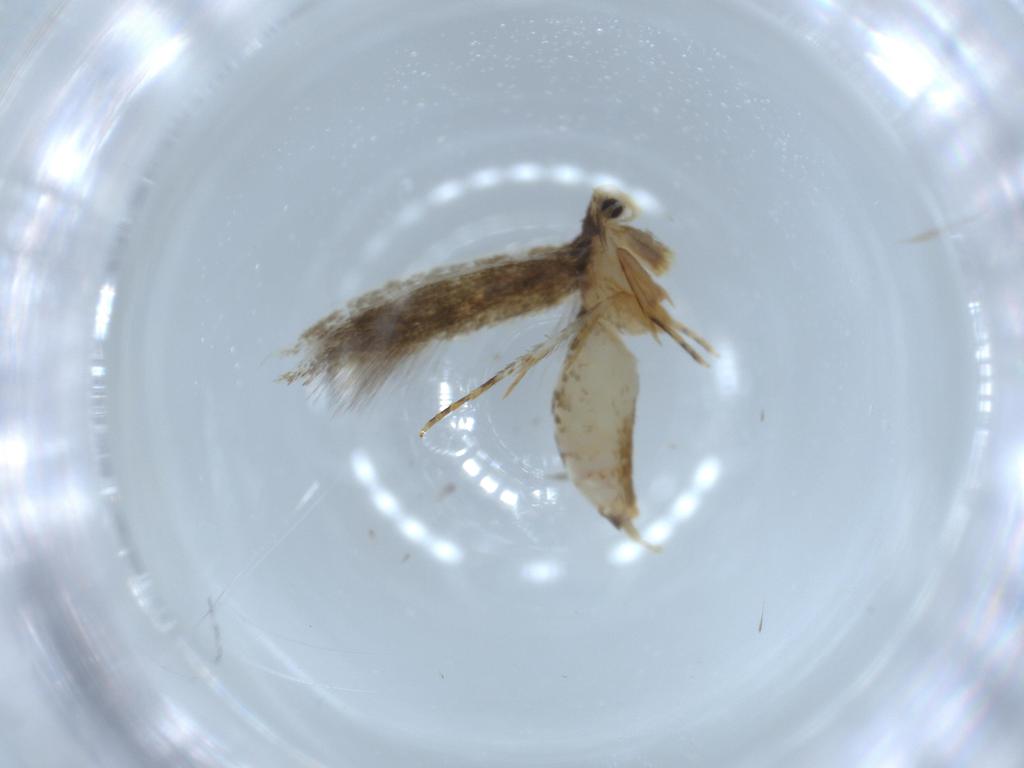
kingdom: Animalia
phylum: Arthropoda
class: Insecta
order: Lepidoptera
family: Tineidae
